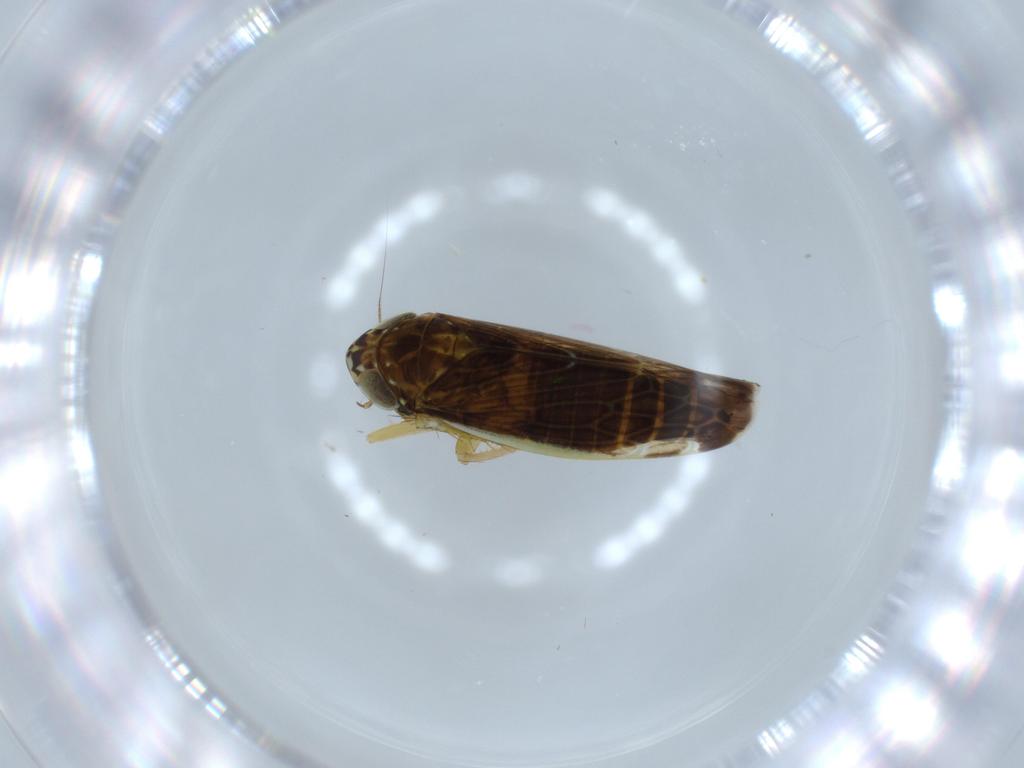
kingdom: Animalia
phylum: Arthropoda
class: Insecta
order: Hemiptera
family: Cicadellidae
